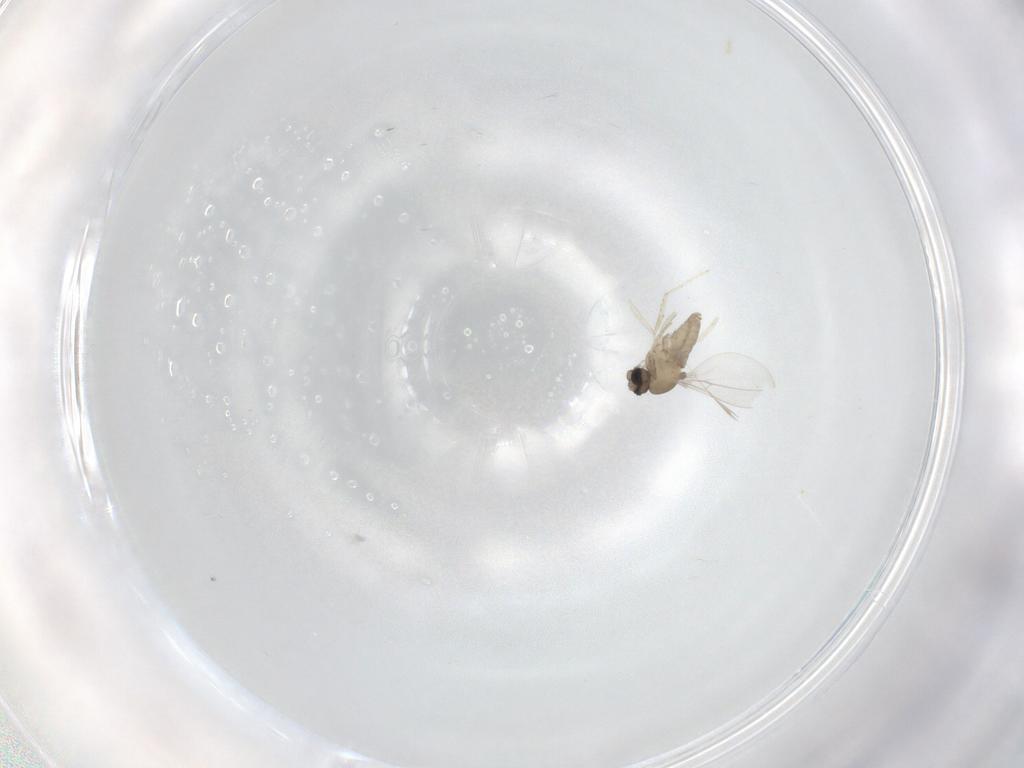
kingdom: Animalia
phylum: Arthropoda
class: Insecta
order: Diptera
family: Cecidomyiidae
